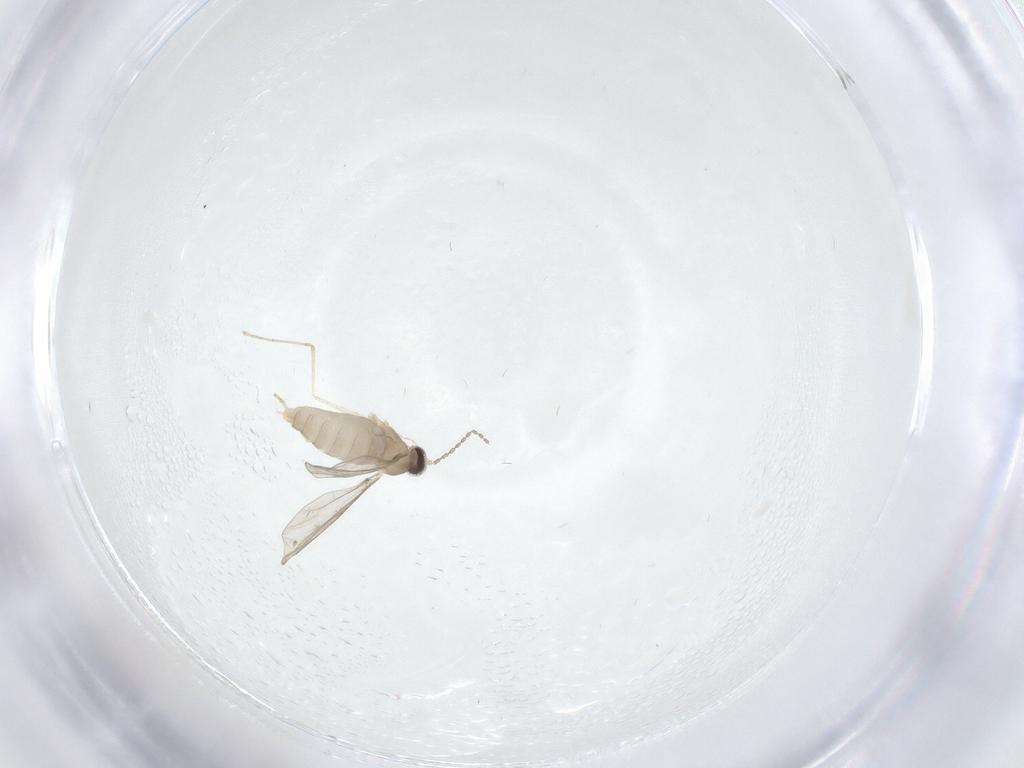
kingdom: Animalia
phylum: Arthropoda
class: Insecta
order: Diptera
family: Cecidomyiidae
